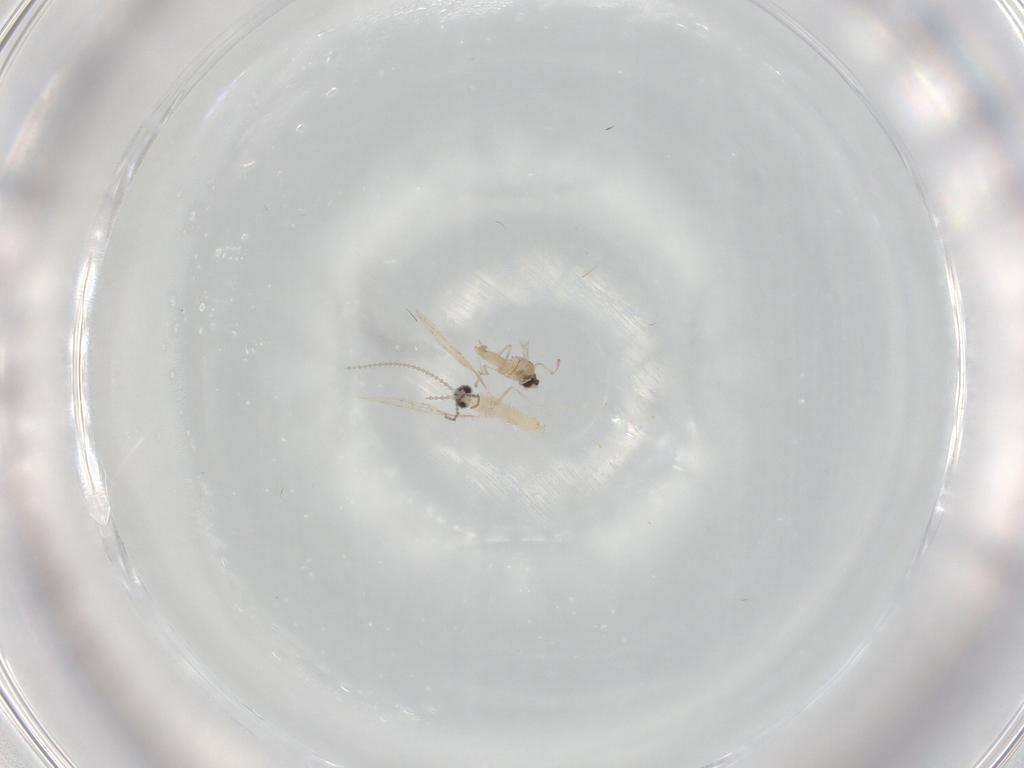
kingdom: Animalia
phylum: Arthropoda
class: Insecta
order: Diptera
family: Cecidomyiidae
